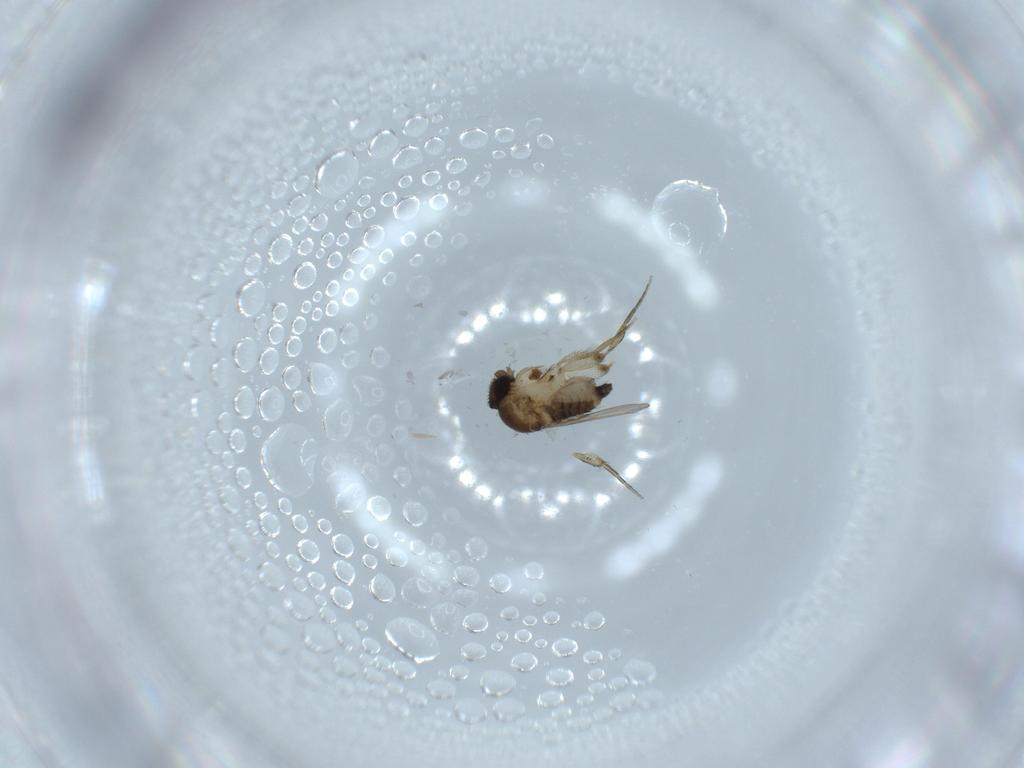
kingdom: Animalia
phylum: Arthropoda
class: Insecta
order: Diptera
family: Phoridae
